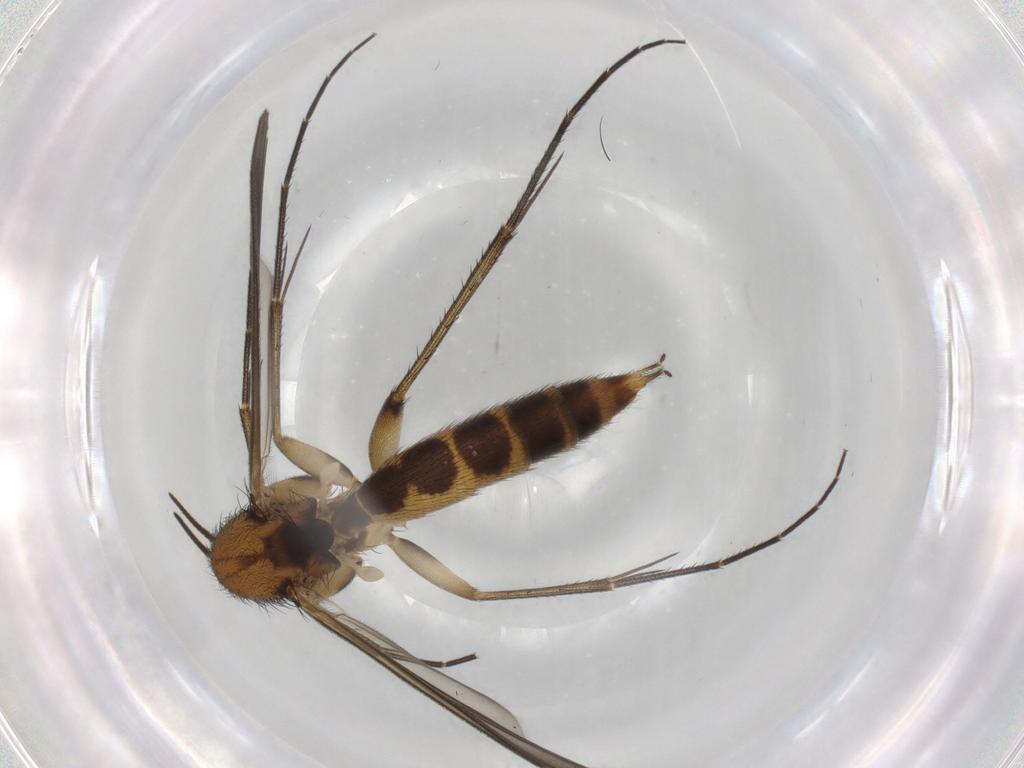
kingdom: Animalia
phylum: Arthropoda
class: Insecta
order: Diptera
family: Mycetophilidae
